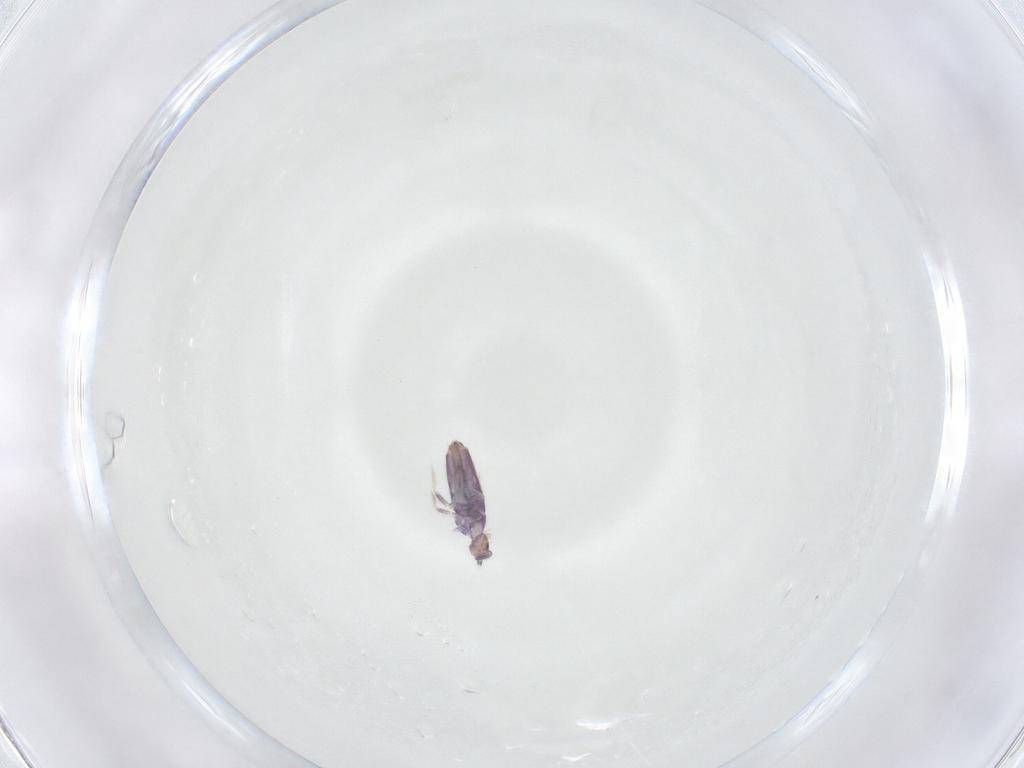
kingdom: Animalia
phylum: Arthropoda
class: Collembola
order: Entomobryomorpha
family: Entomobryidae
